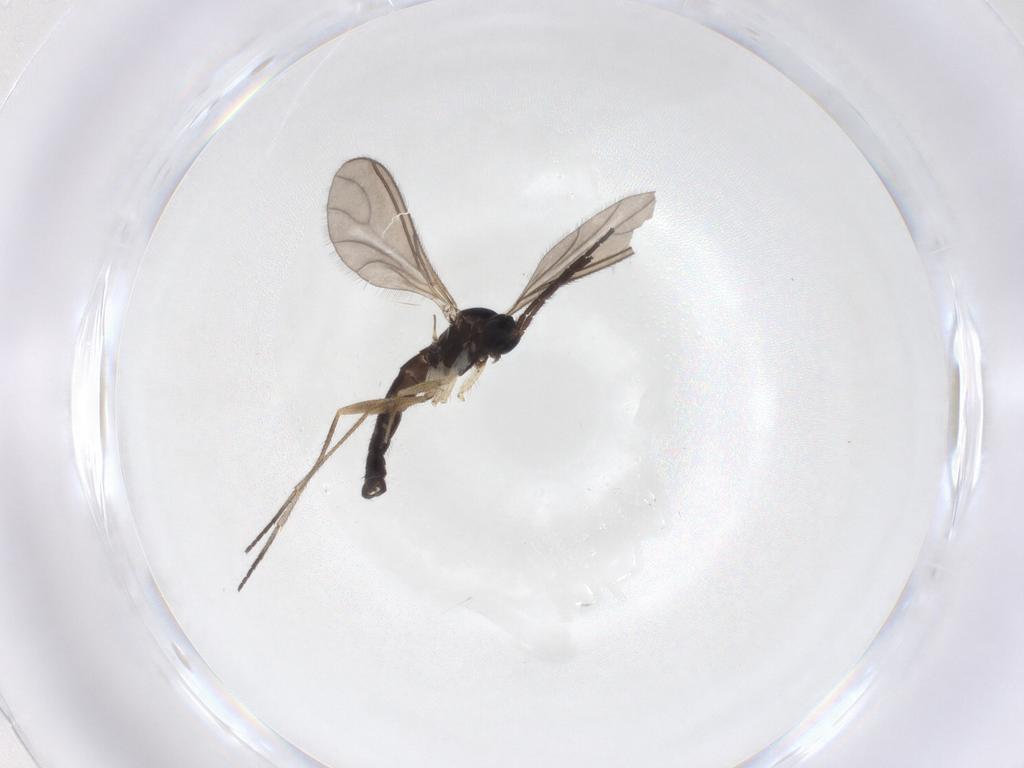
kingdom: Animalia
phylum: Arthropoda
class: Insecta
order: Diptera
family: Sciaridae
